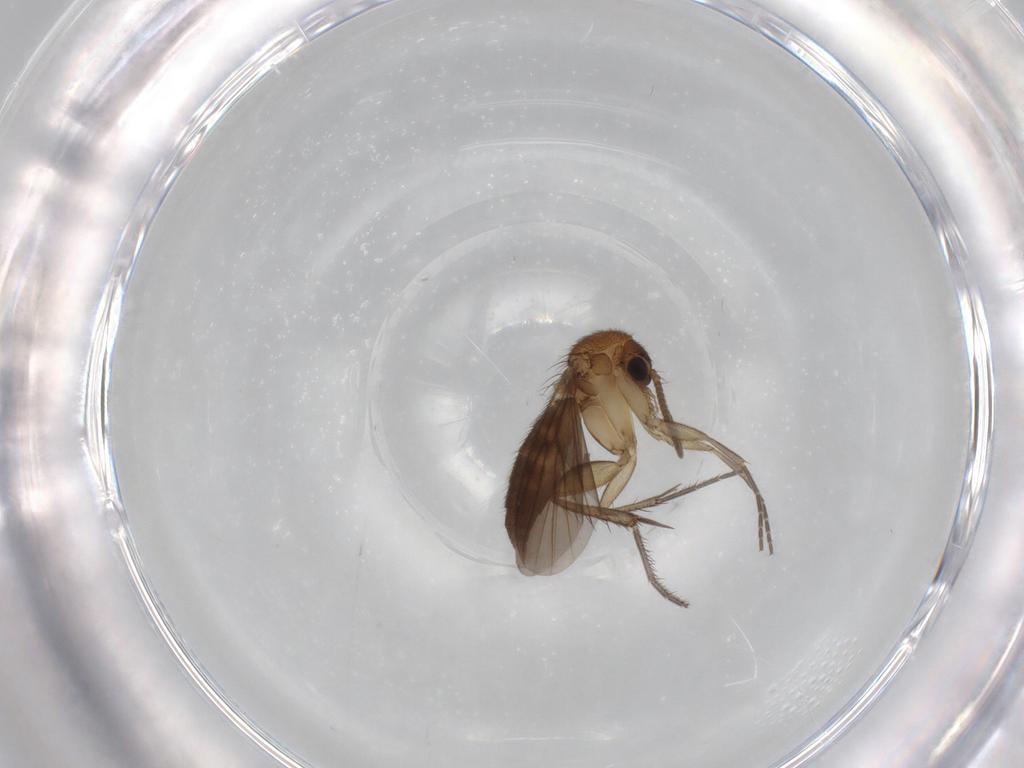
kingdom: Animalia
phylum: Arthropoda
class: Insecta
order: Diptera
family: Mycetophilidae
